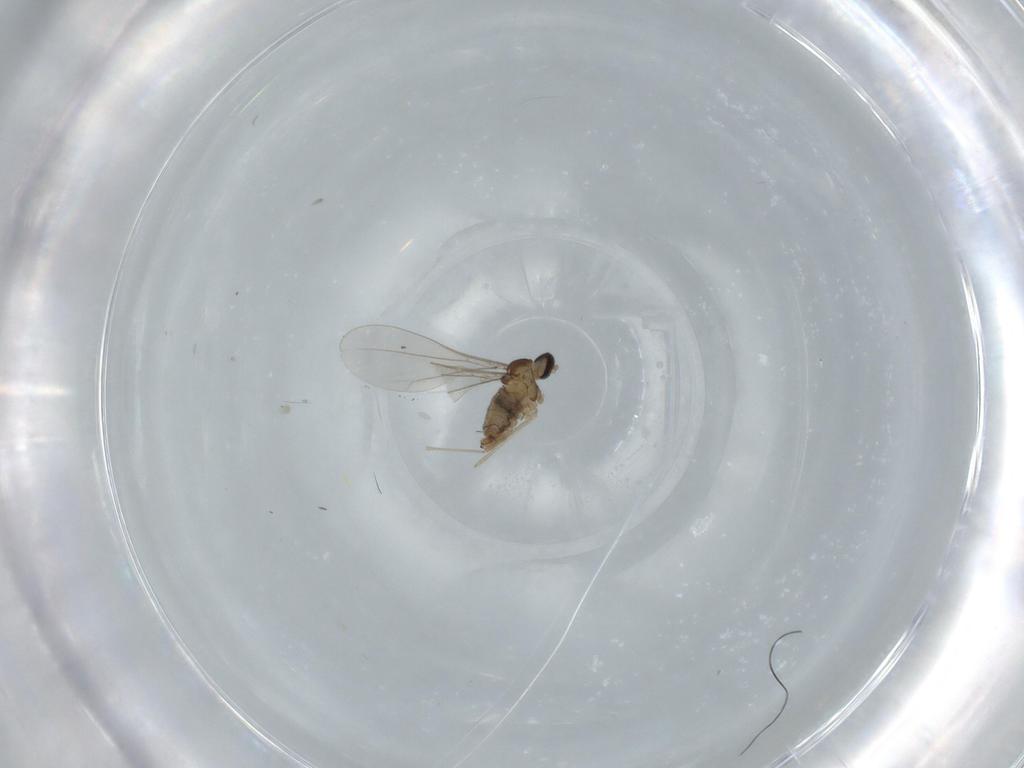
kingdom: Animalia
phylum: Arthropoda
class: Insecta
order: Diptera
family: Cecidomyiidae
